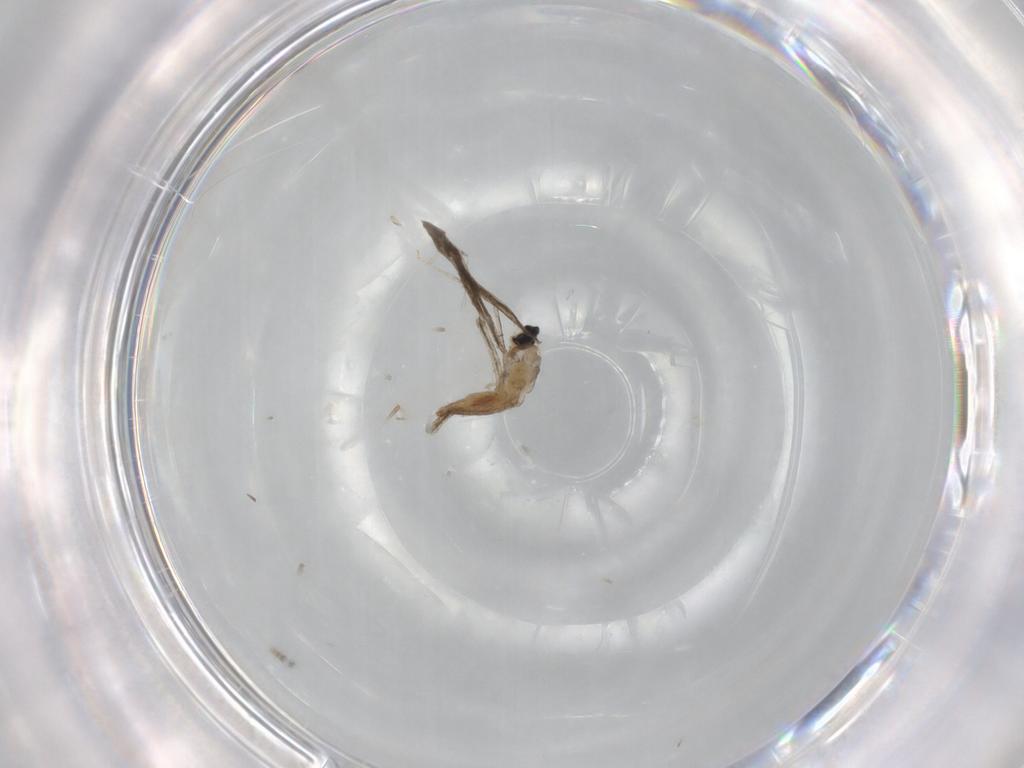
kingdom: Animalia
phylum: Arthropoda
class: Insecta
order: Diptera
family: Cecidomyiidae
